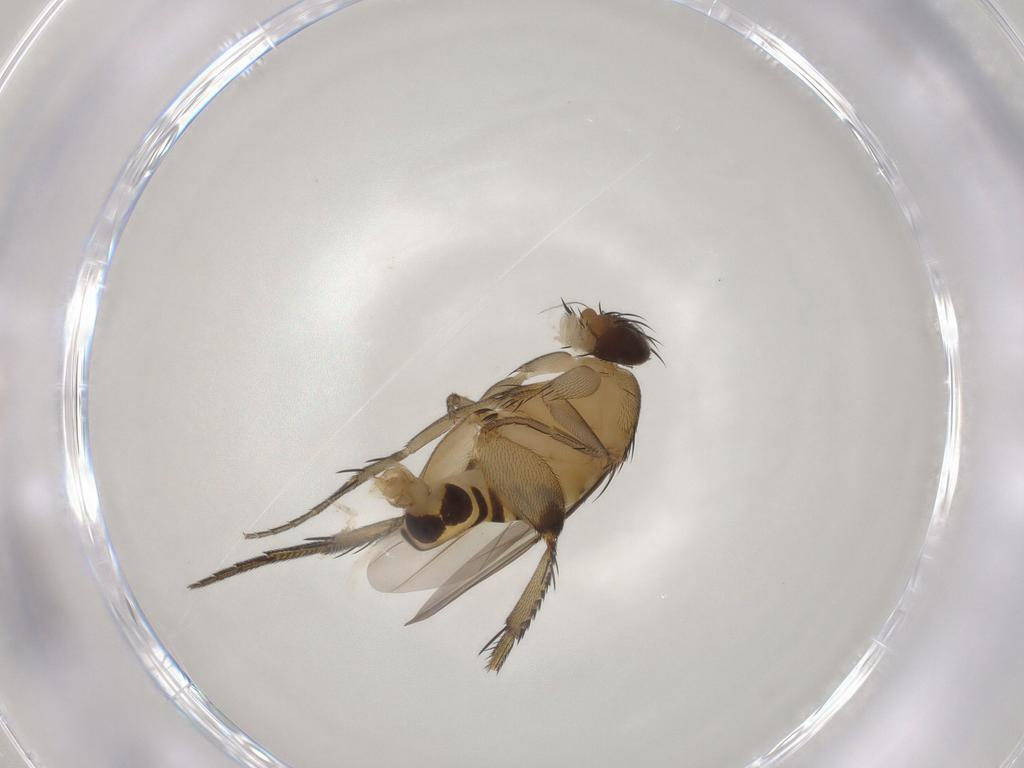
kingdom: Animalia
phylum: Arthropoda
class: Insecta
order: Diptera
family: Phoridae
